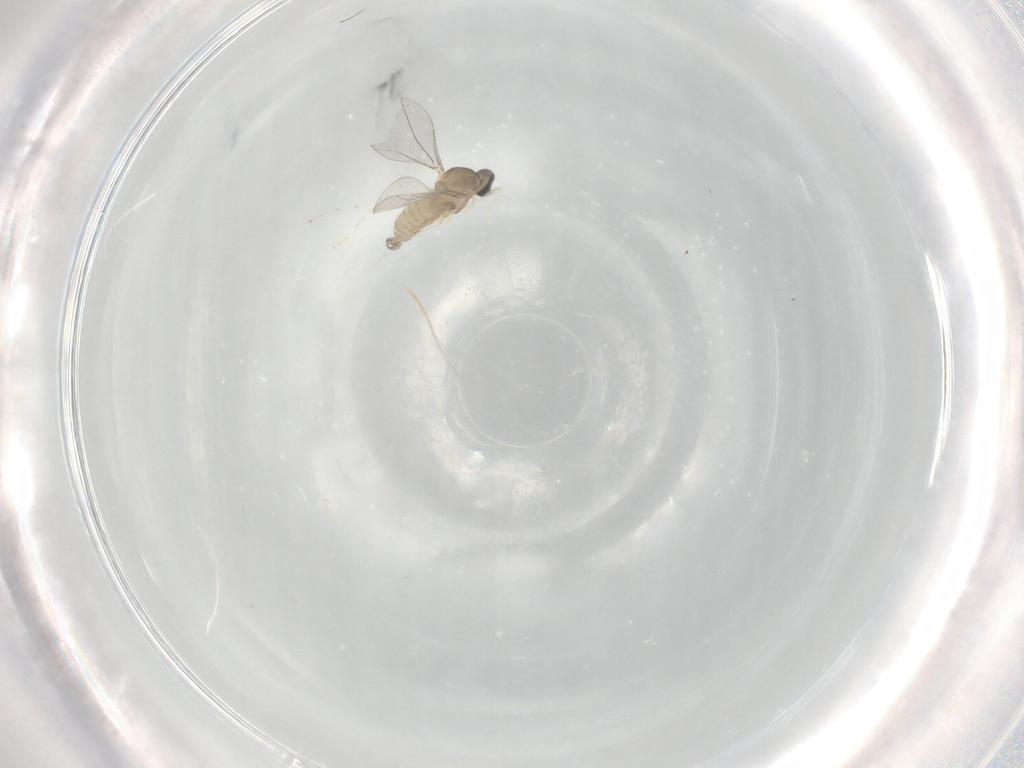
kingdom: Animalia
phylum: Arthropoda
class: Insecta
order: Diptera
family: Cecidomyiidae
